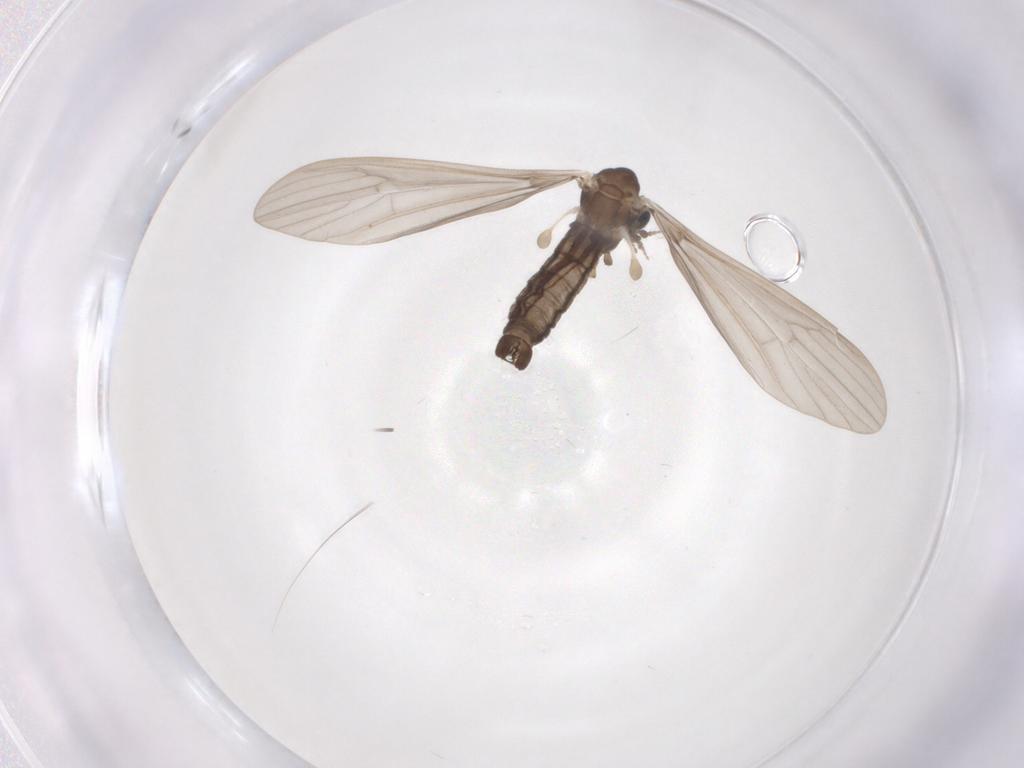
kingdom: Animalia
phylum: Arthropoda
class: Insecta
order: Diptera
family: Limoniidae
